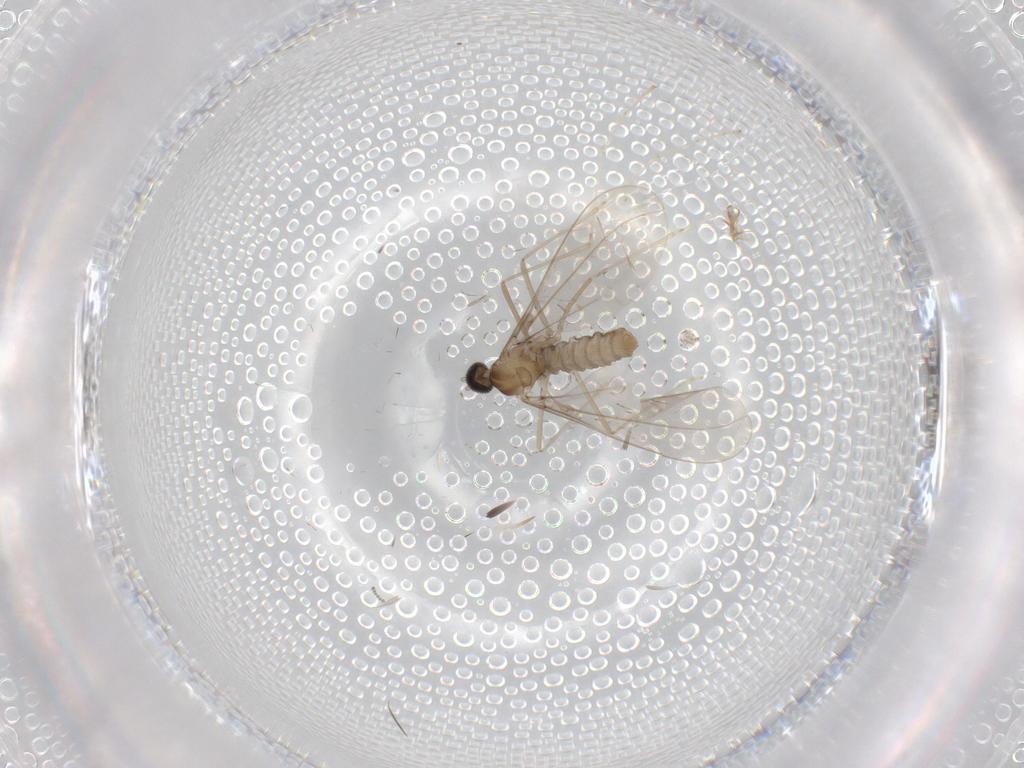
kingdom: Animalia
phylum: Arthropoda
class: Insecta
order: Diptera
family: Cecidomyiidae
